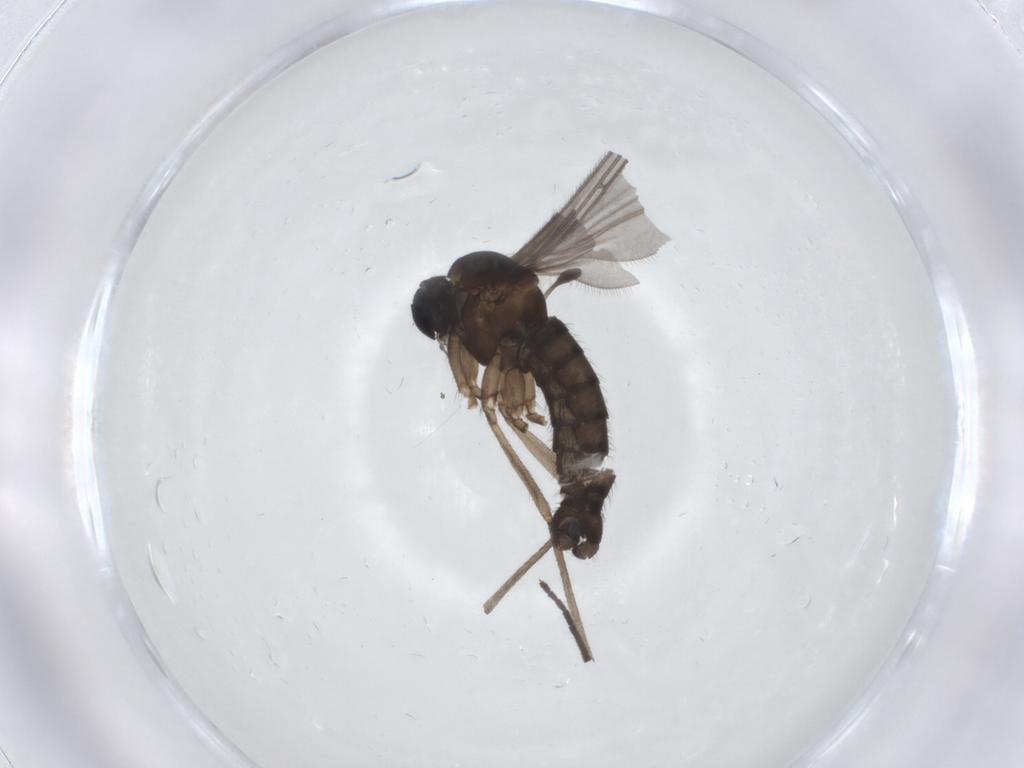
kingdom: Animalia
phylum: Arthropoda
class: Insecta
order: Diptera
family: Sciaridae
